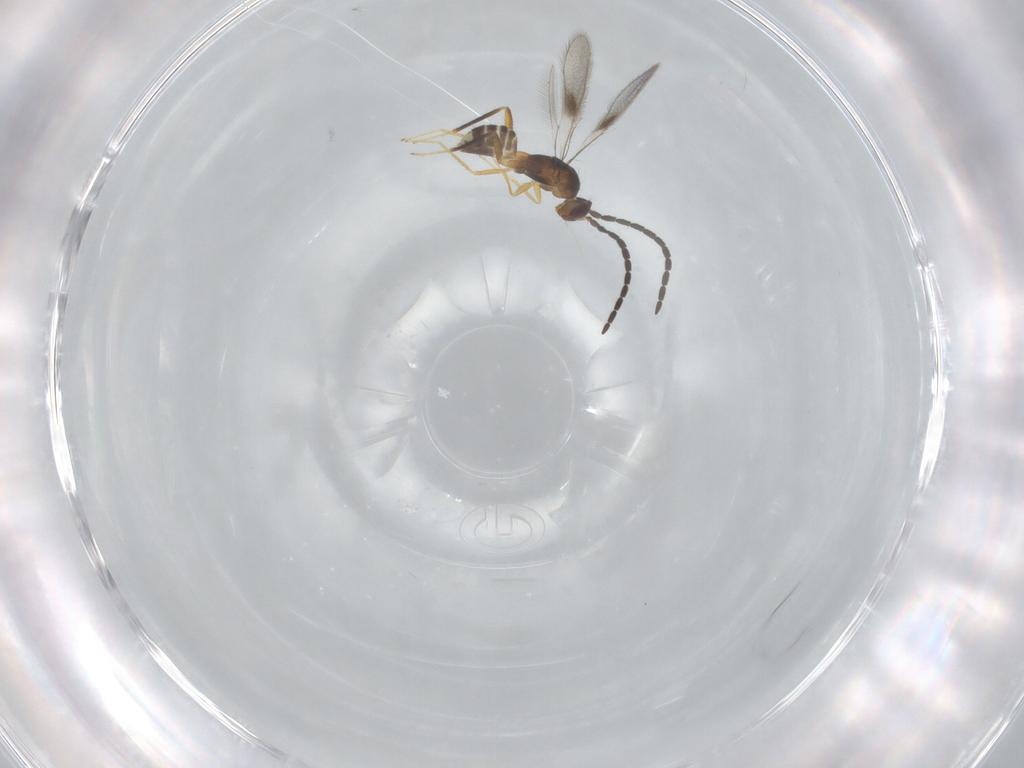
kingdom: Animalia
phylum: Arthropoda
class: Insecta
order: Hymenoptera
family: Mymaridae
